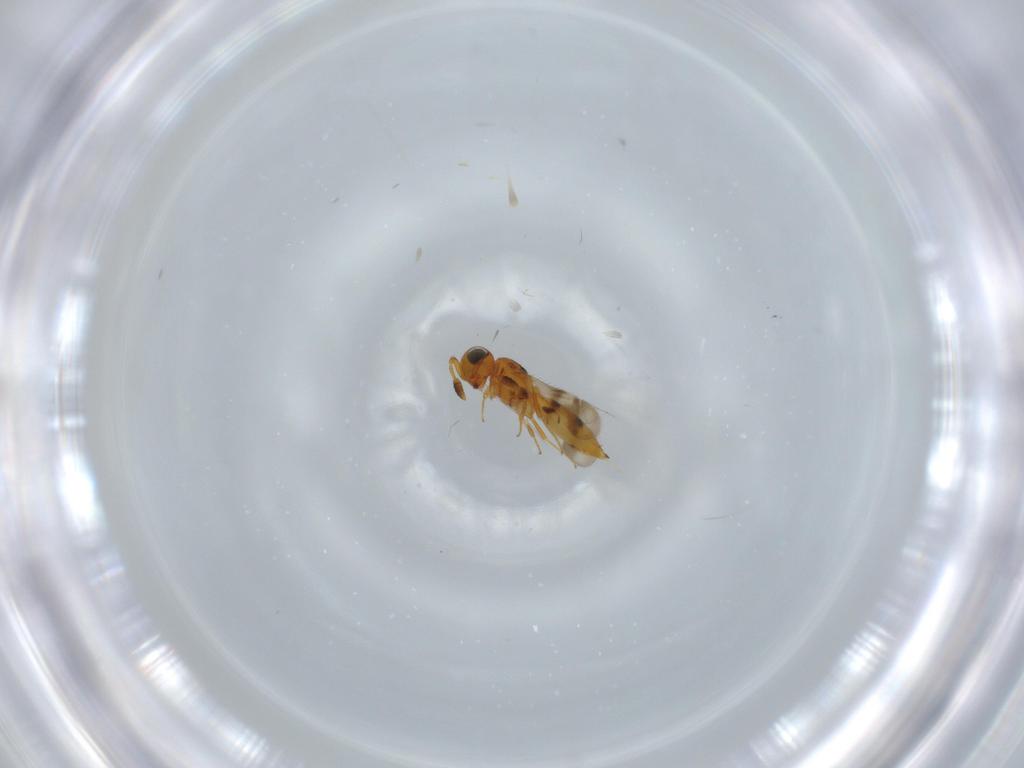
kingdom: Animalia
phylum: Arthropoda
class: Insecta
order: Hymenoptera
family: Scelionidae
